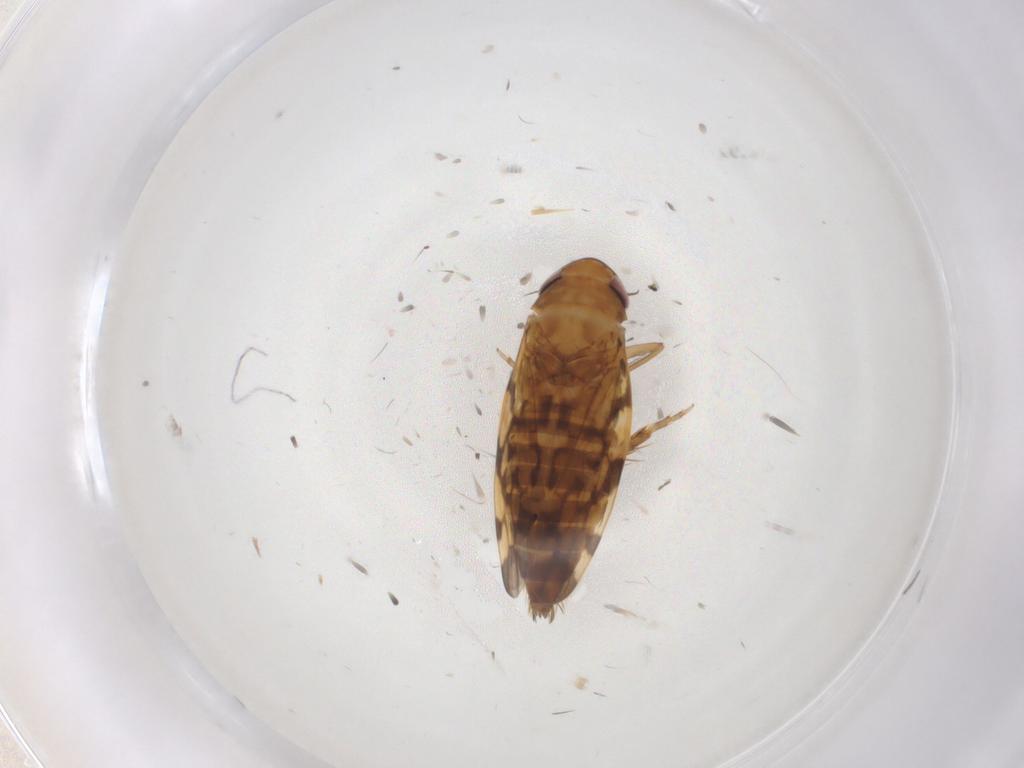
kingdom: Animalia
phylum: Arthropoda
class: Insecta
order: Hemiptera
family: Cicadellidae
